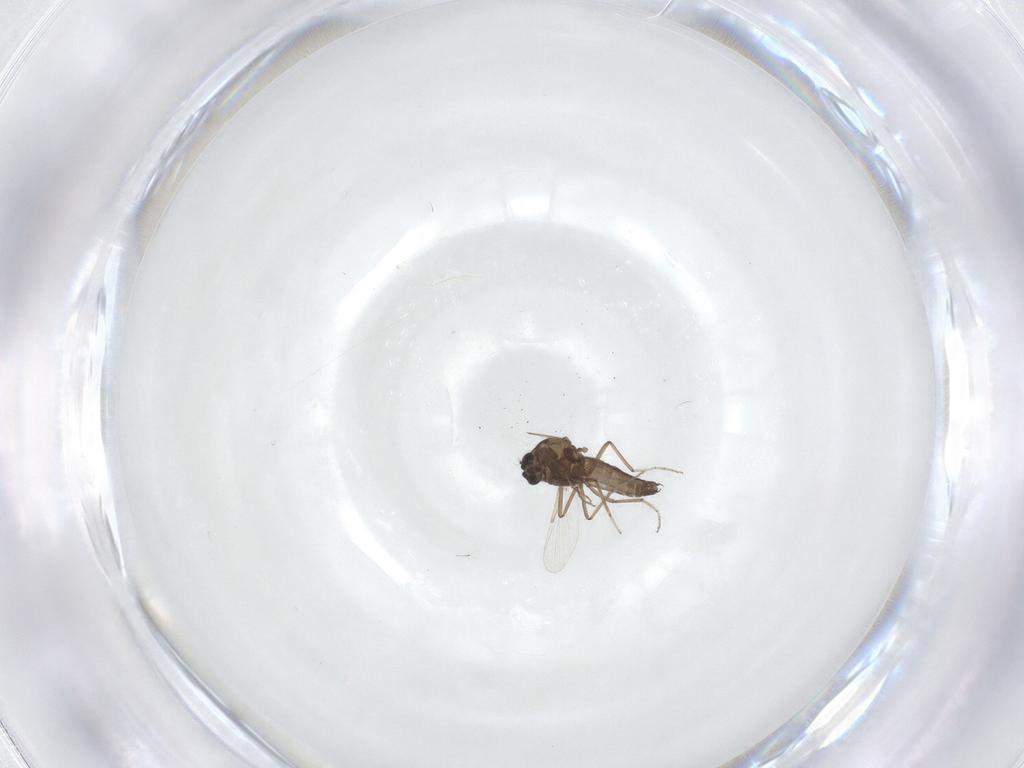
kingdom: Animalia
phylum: Arthropoda
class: Insecta
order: Diptera
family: Ceratopogonidae
